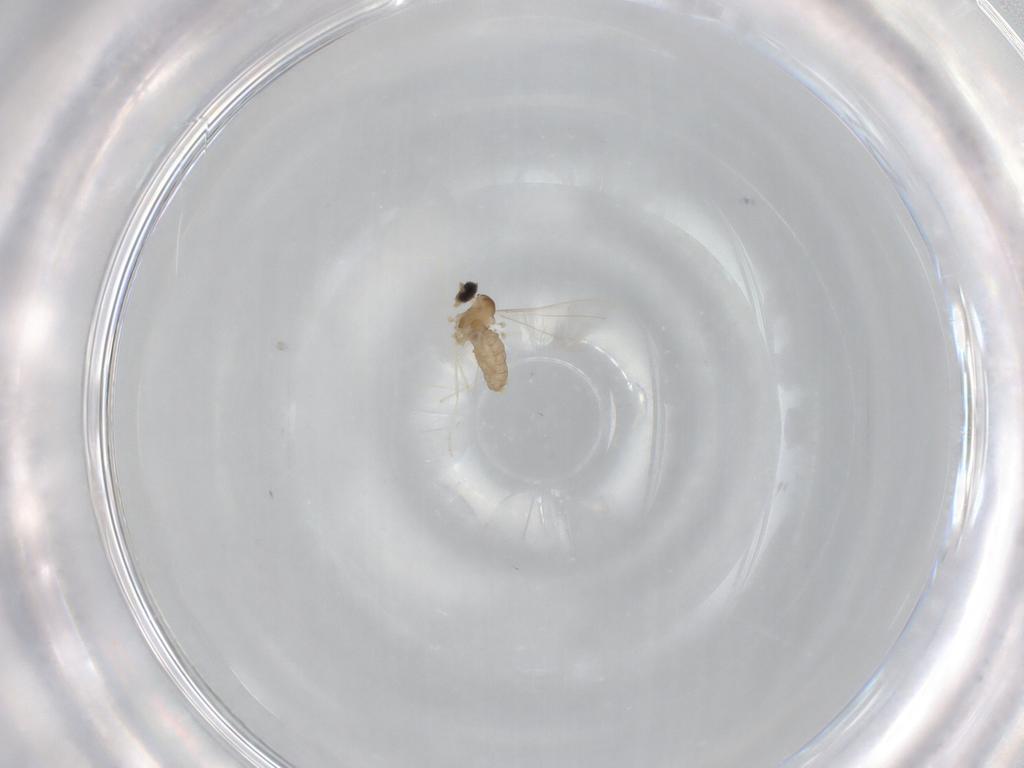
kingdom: Animalia
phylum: Arthropoda
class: Insecta
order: Diptera
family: Cecidomyiidae
